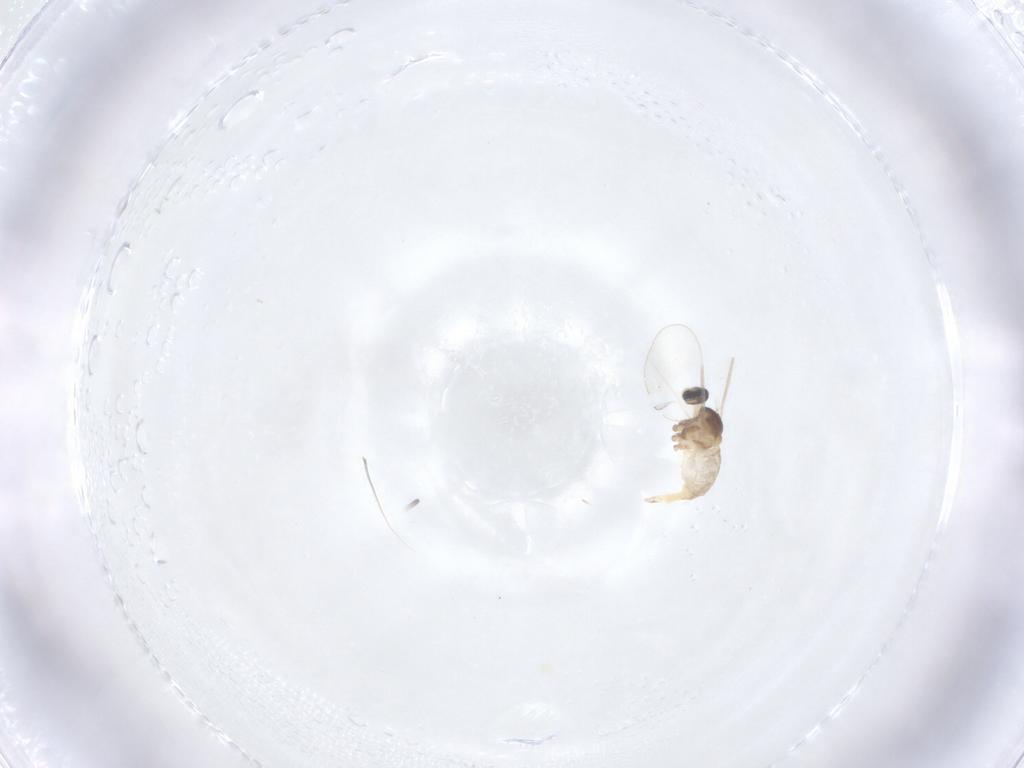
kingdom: Animalia
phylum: Arthropoda
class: Insecta
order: Diptera
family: Cecidomyiidae
